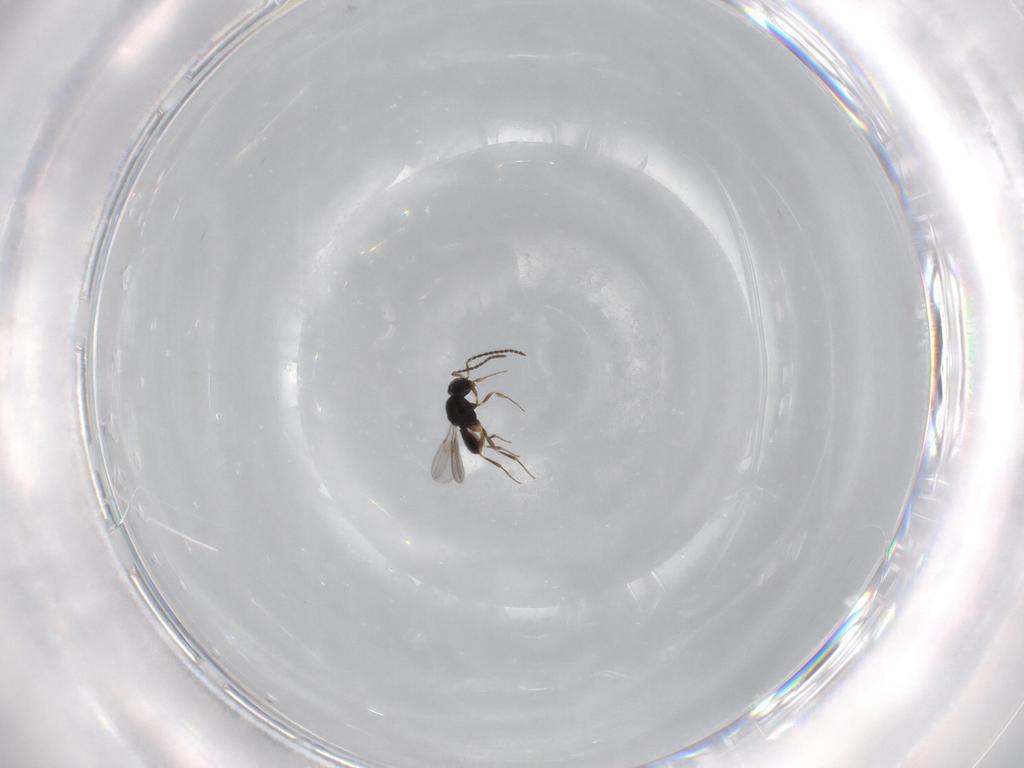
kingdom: Animalia
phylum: Arthropoda
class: Insecta
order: Hymenoptera
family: Scelionidae
